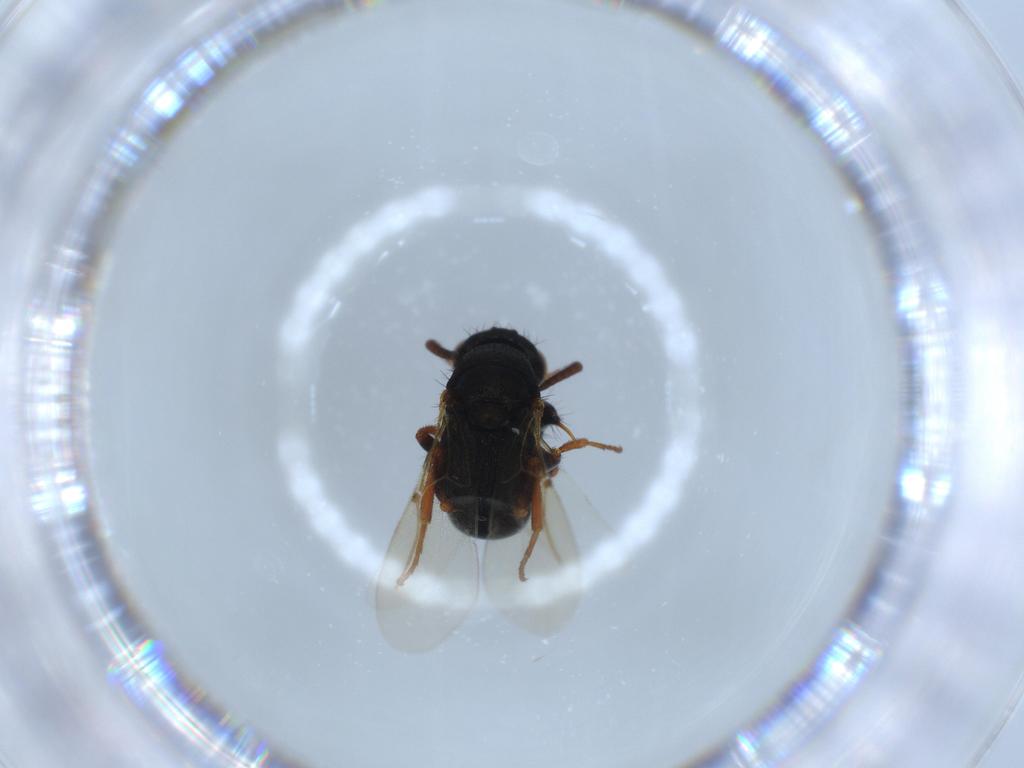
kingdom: Animalia
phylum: Arthropoda
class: Insecta
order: Hymenoptera
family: Bethylidae
